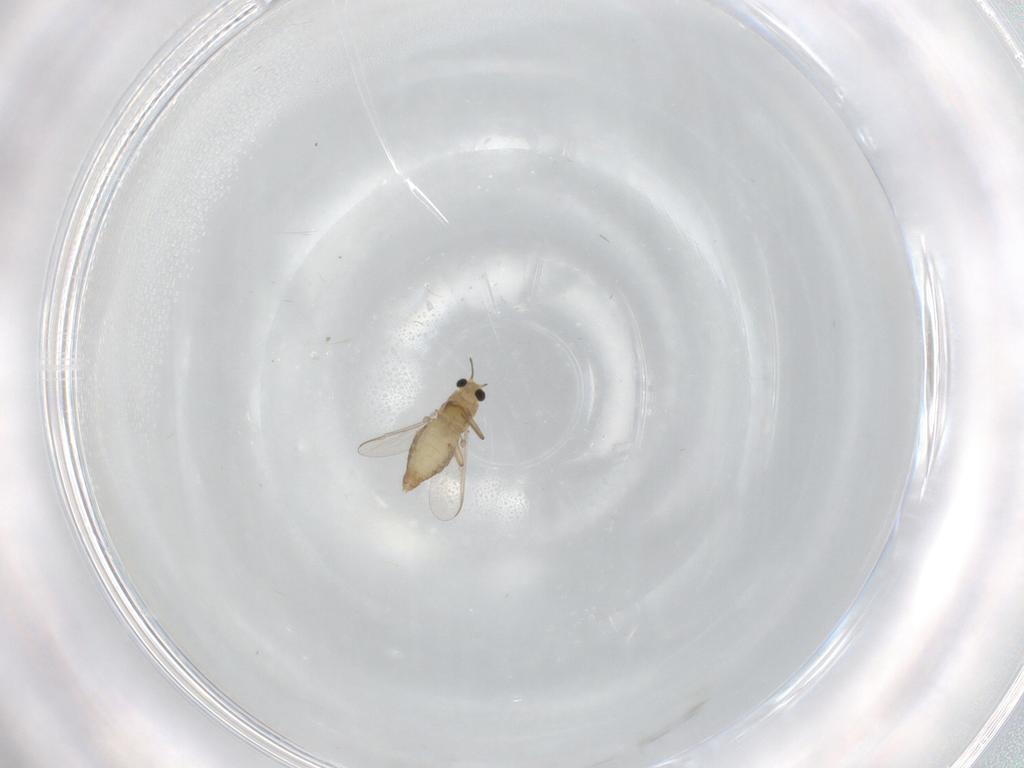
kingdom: Animalia
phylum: Arthropoda
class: Insecta
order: Diptera
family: Chironomidae
